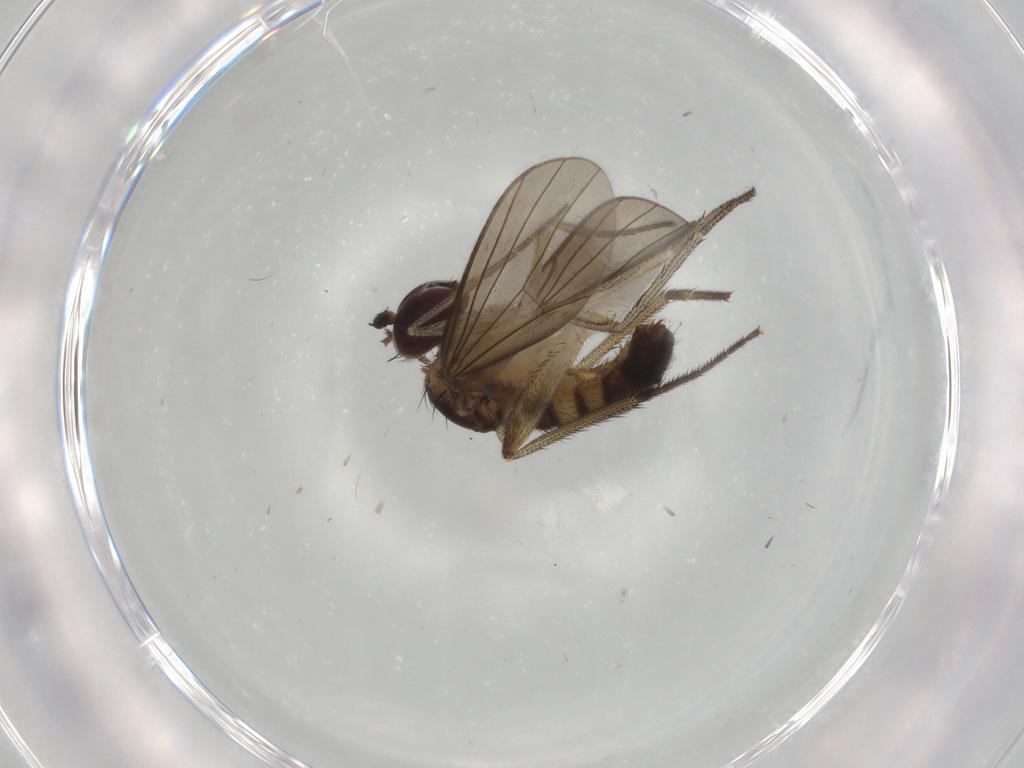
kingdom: Animalia
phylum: Arthropoda
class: Insecta
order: Diptera
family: Dolichopodidae
